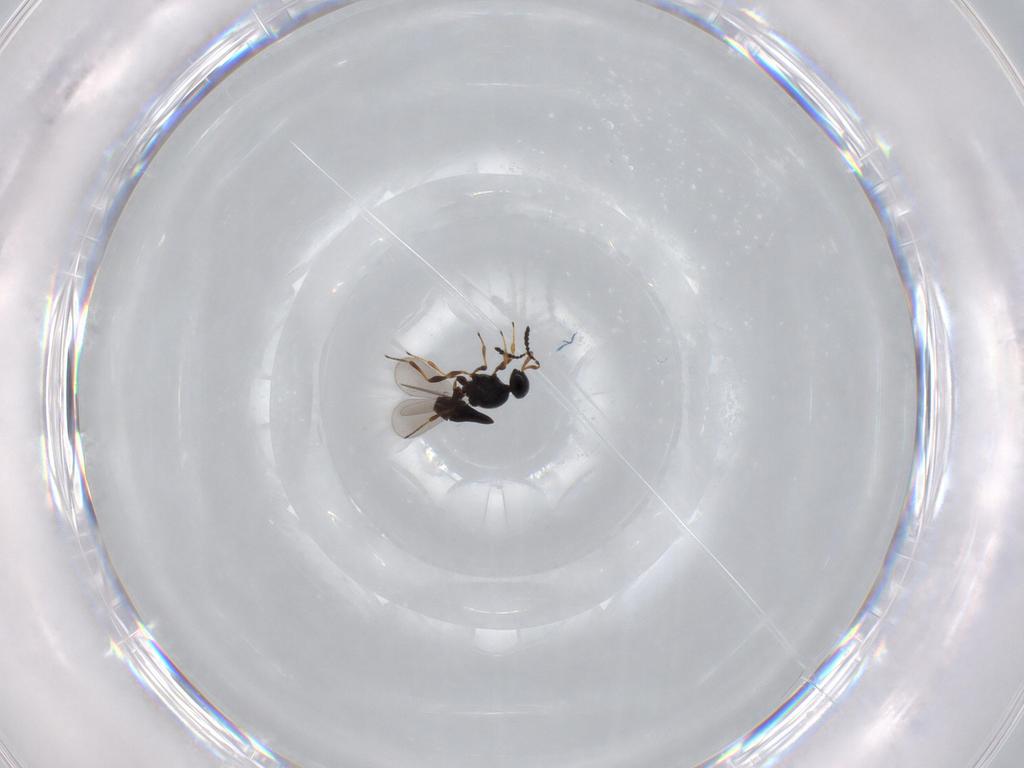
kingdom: Animalia
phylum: Arthropoda
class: Insecta
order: Hymenoptera
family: Platygastridae
